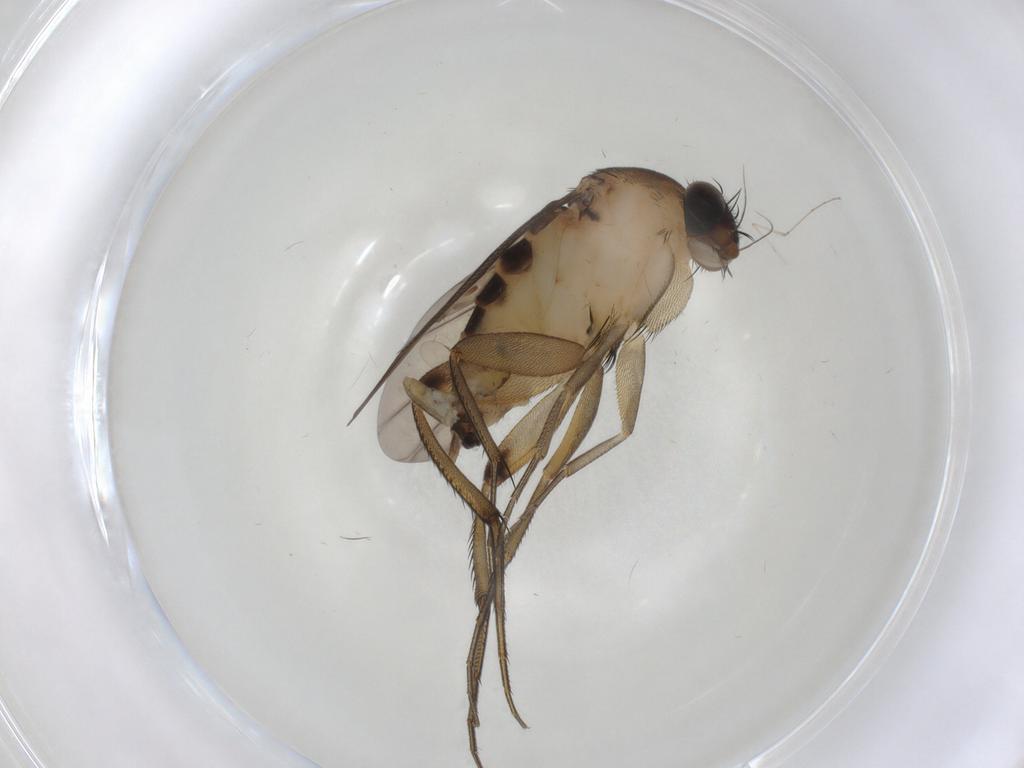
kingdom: Animalia
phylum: Arthropoda
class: Insecta
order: Diptera
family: Phoridae
